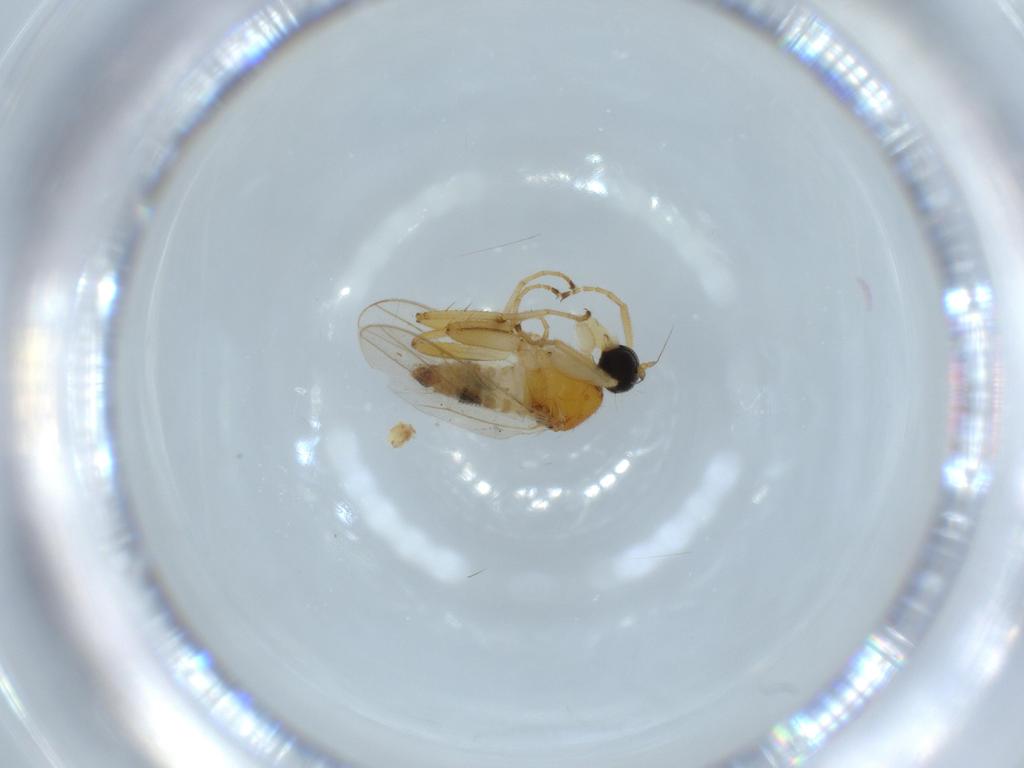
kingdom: Animalia
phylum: Arthropoda
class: Insecta
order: Diptera
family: Hybotidae
